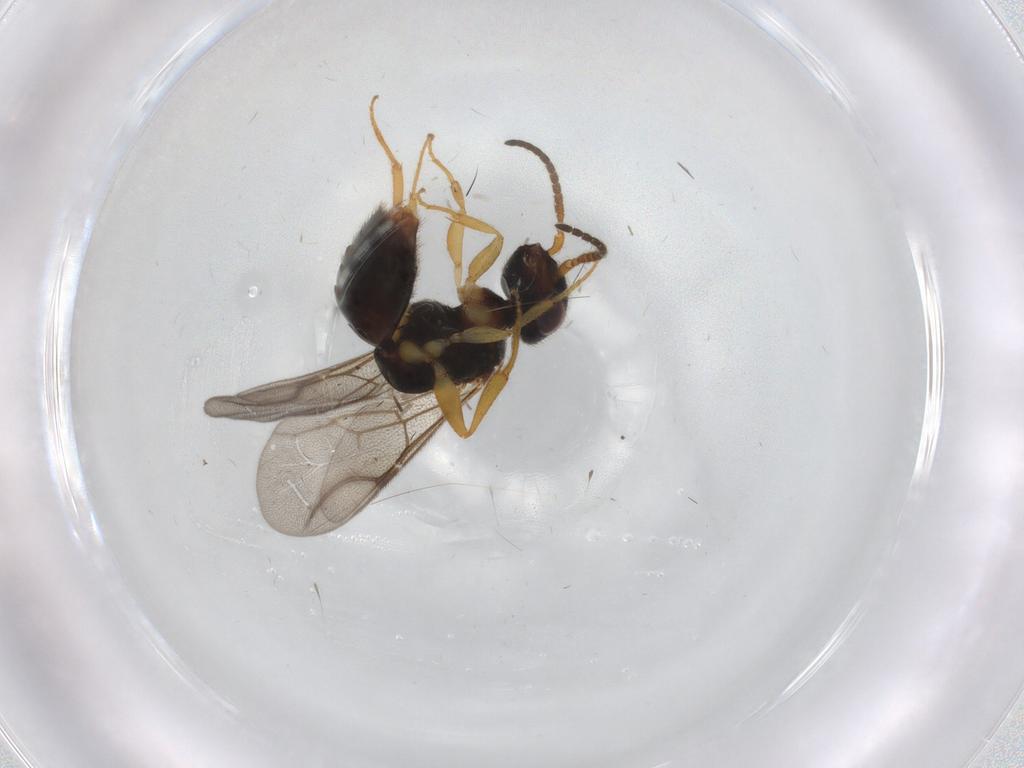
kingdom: Animalia
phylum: Arthropoda
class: Insecta
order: Hymenoptera
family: Bethylidae
